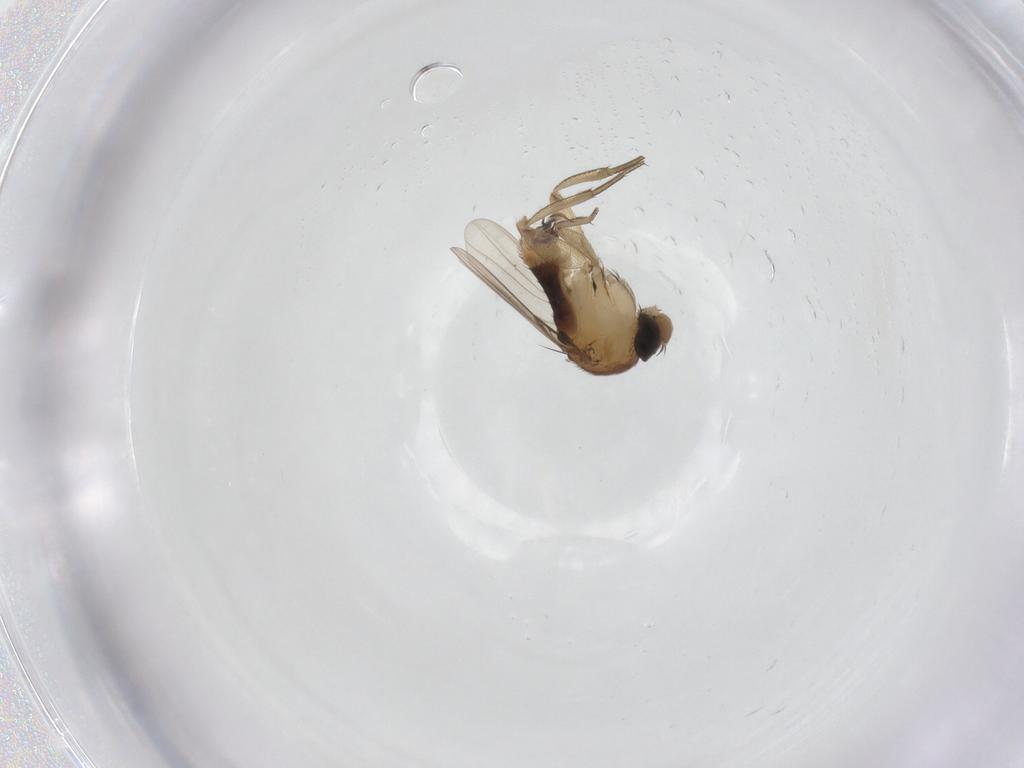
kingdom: Animalia
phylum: Arthropoda
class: Insecta
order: Diptera
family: Phoridae
